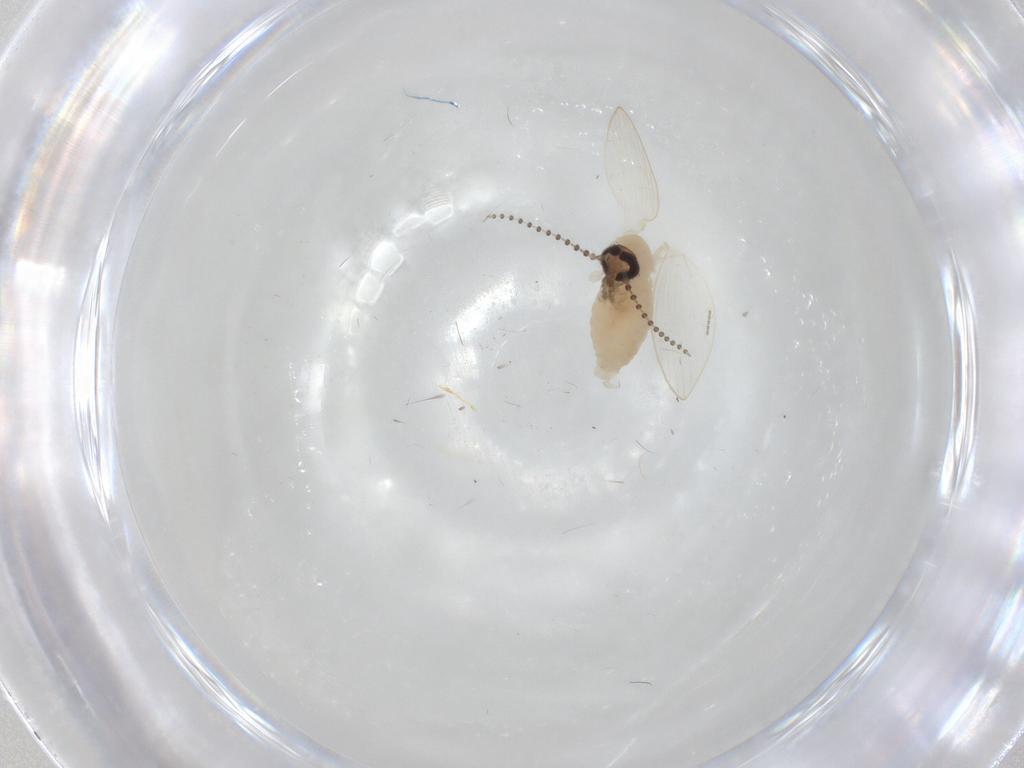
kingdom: Animalia
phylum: Arthropoda
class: Insecta
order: Diptera
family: Psychodidae
